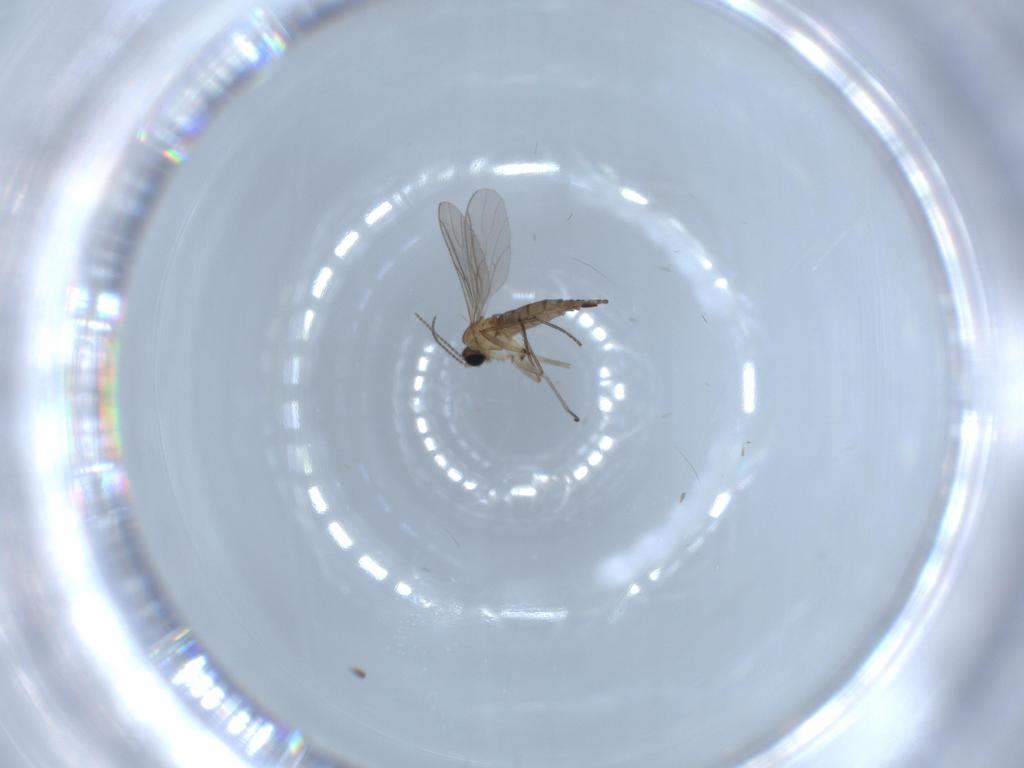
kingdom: Animalia
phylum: Arthropoda
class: Insecta
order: Diptera
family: Sciaridae
